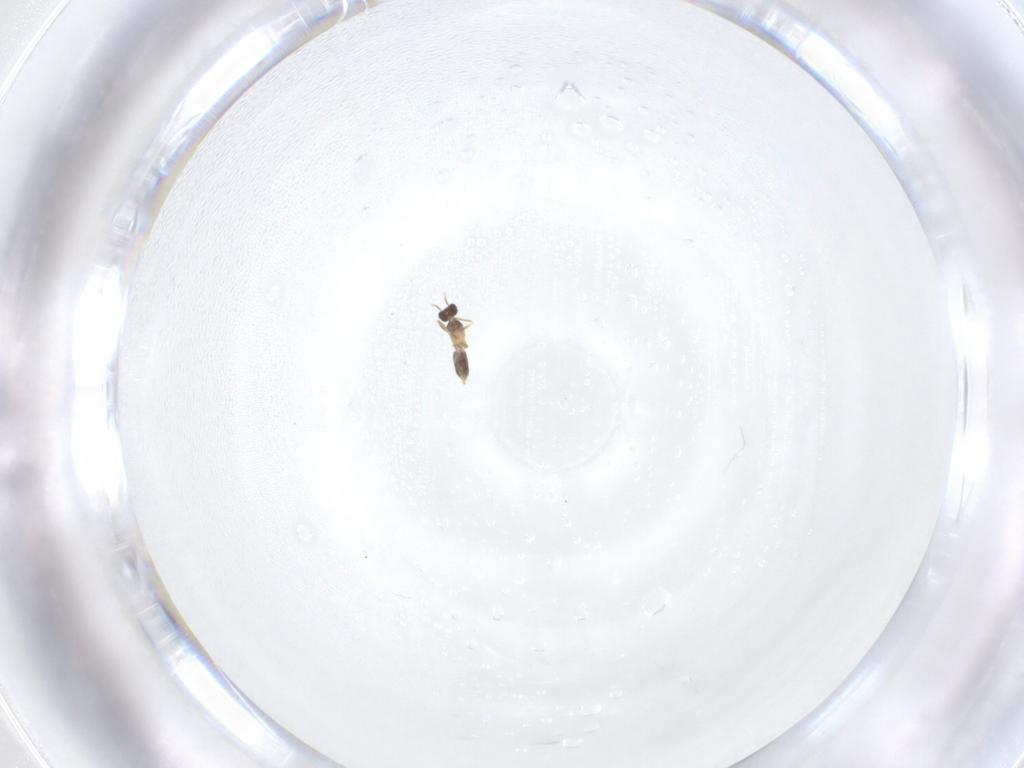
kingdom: Animalia
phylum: Arthropoda
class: Insecta
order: Hymenoptera
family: Mymaridae
